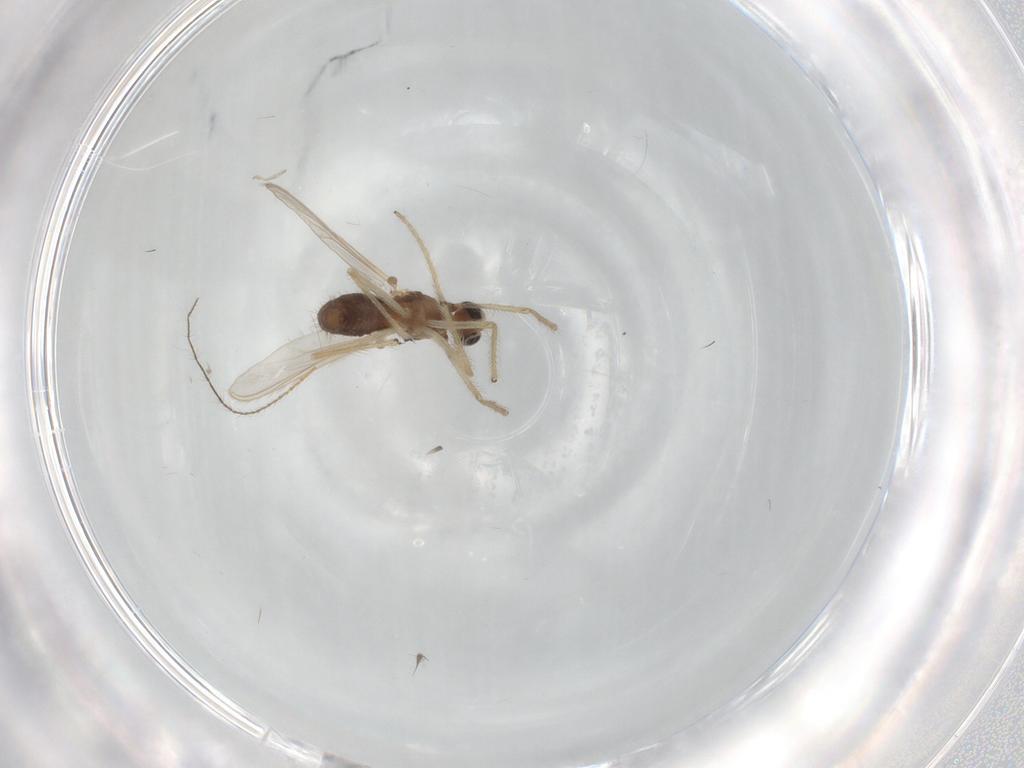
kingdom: Animalia
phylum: Arthropoda
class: Insecta
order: Diptera
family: Chironomidae
